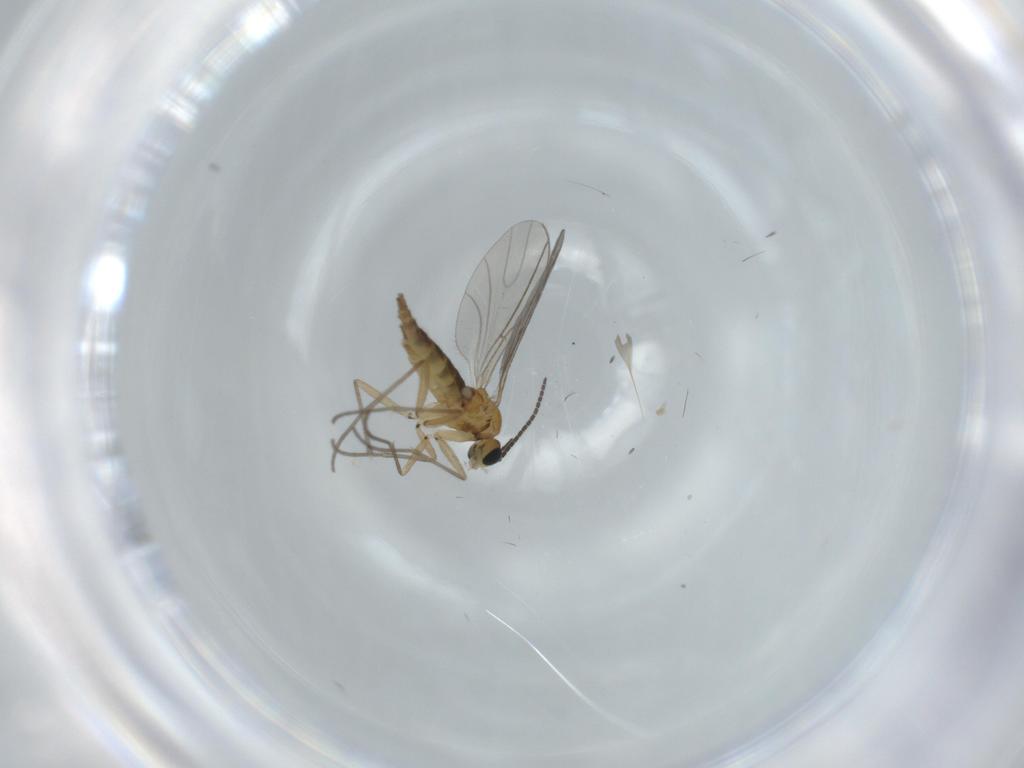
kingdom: Animalia
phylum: Arthropoda
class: Insecta
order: Diptera
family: Sciaridae
